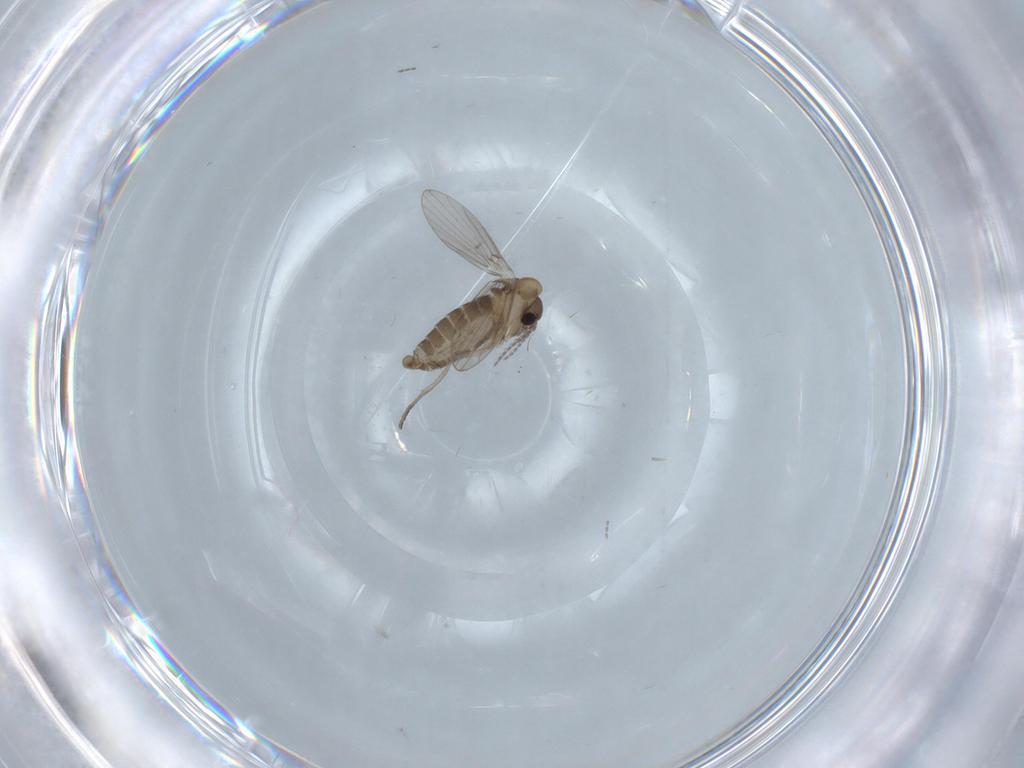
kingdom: Animalia
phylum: Arthropoda
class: Insecta
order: Diptera
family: Psychodidae
